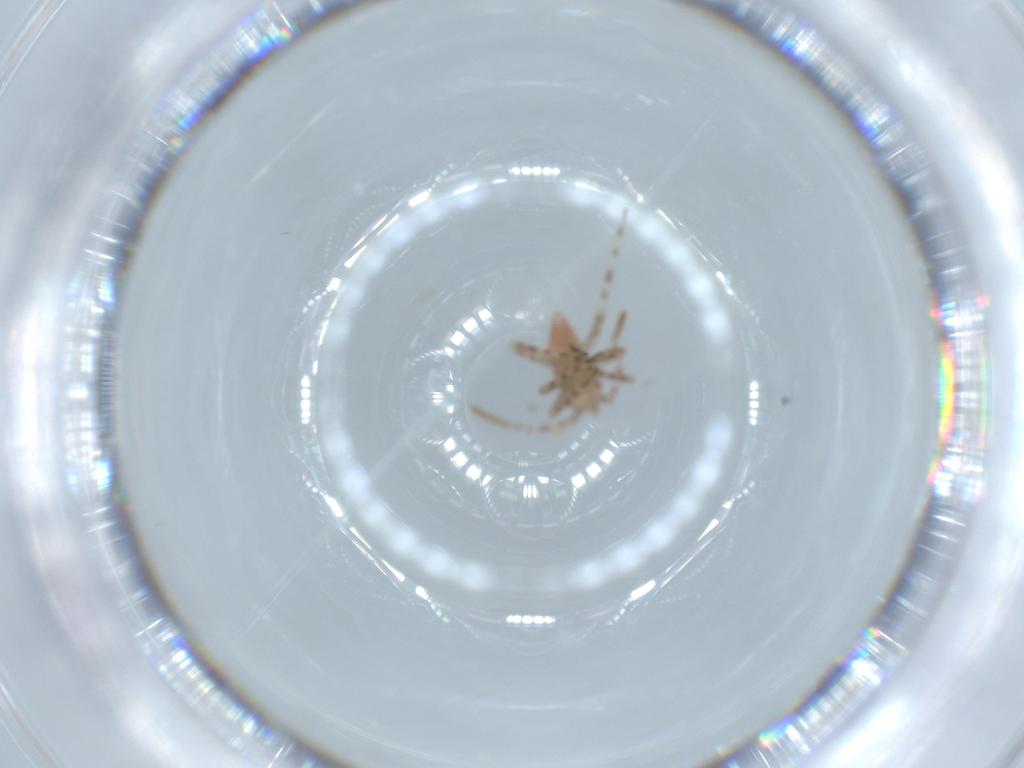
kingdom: Animalia
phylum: Arthropoda
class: Insecta
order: Hemiptera
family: Miridae
